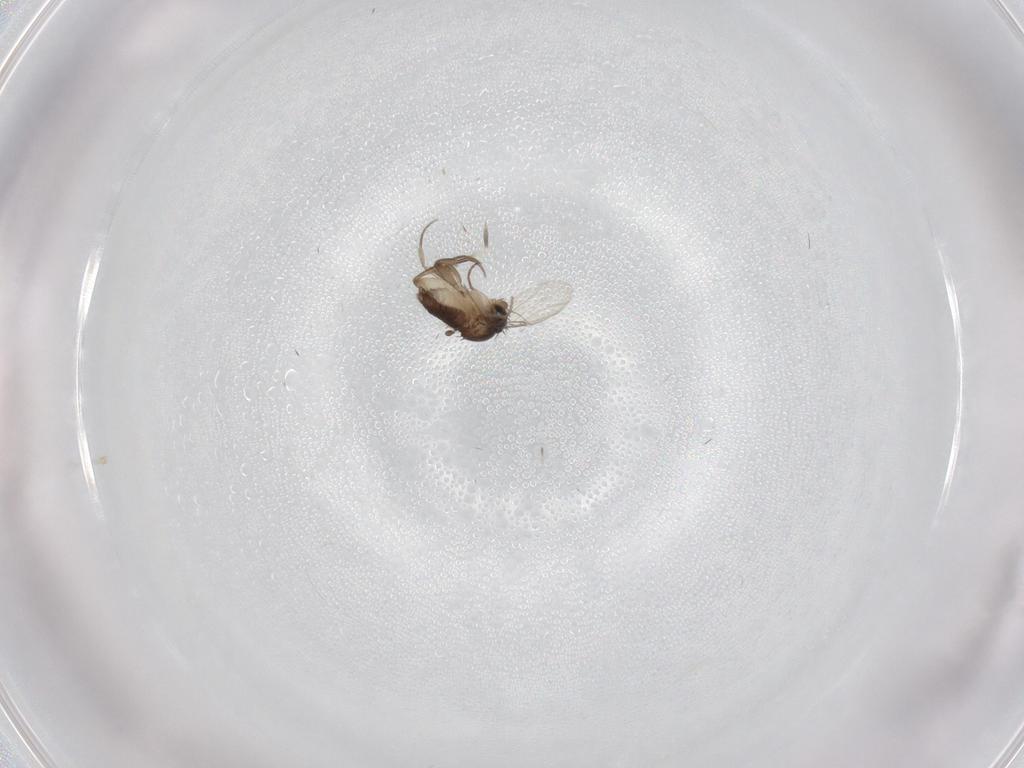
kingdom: Animalia
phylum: Arthropoda
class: Insecta
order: Diptera
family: Phoridae
